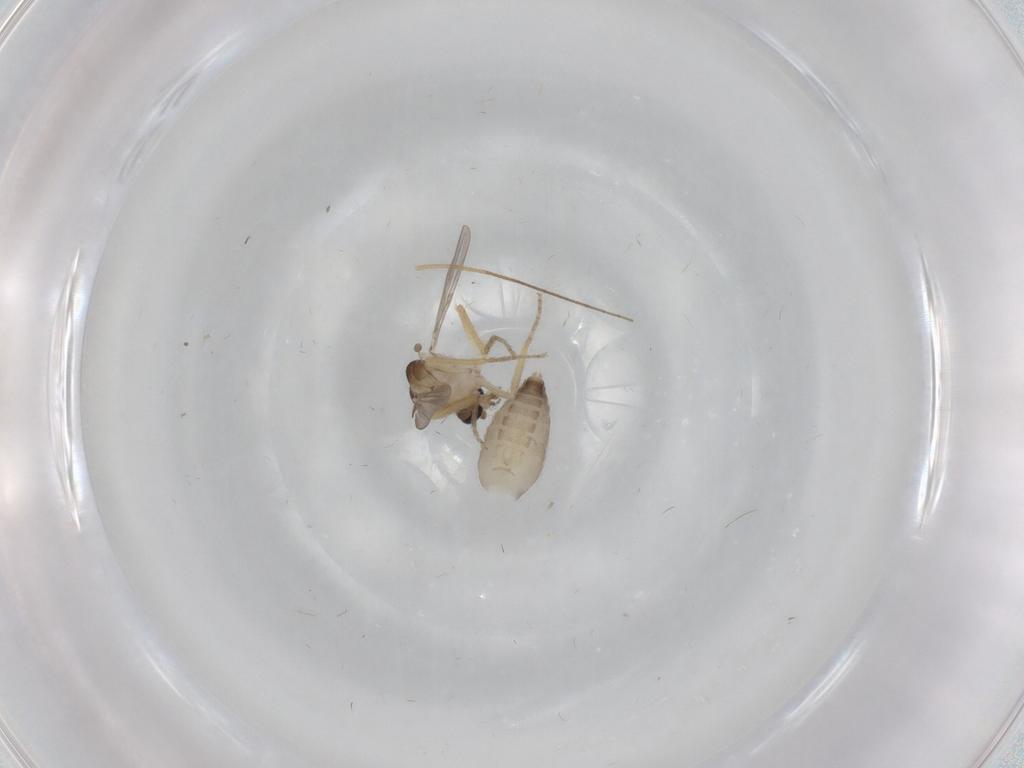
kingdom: Animalia
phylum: Arthropoda
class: Insecta
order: Diptera
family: Ceratopogonidae
